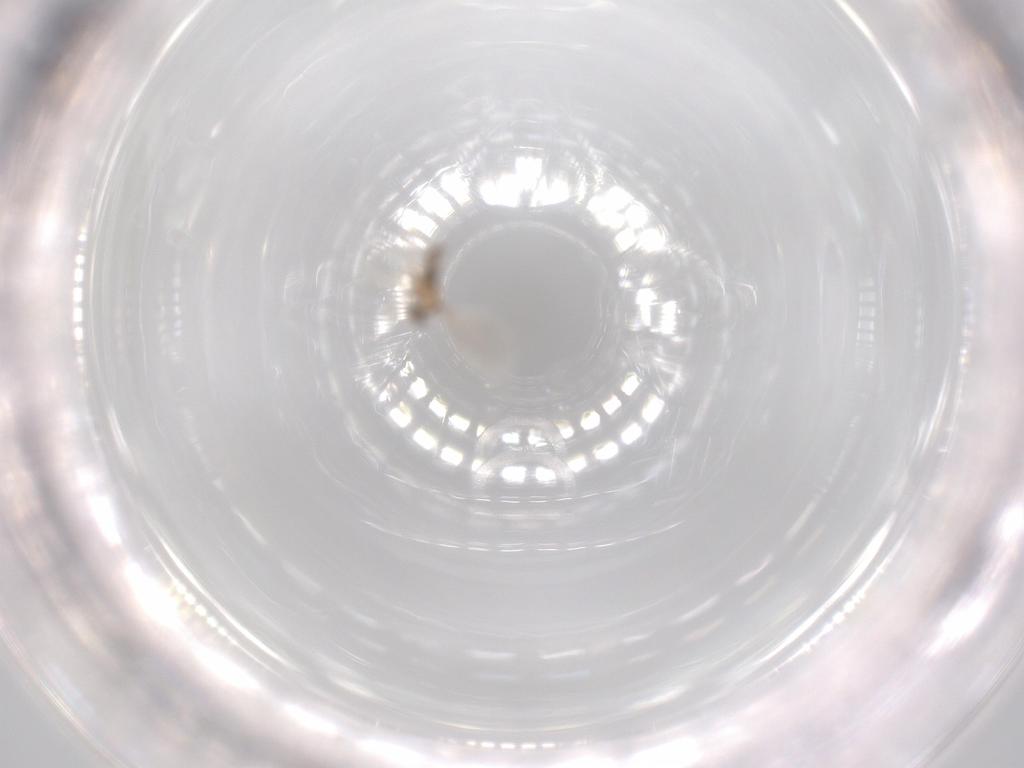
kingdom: Animalia
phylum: Arthropoda
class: Insecta
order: Diptera
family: Cecidomyiidae
